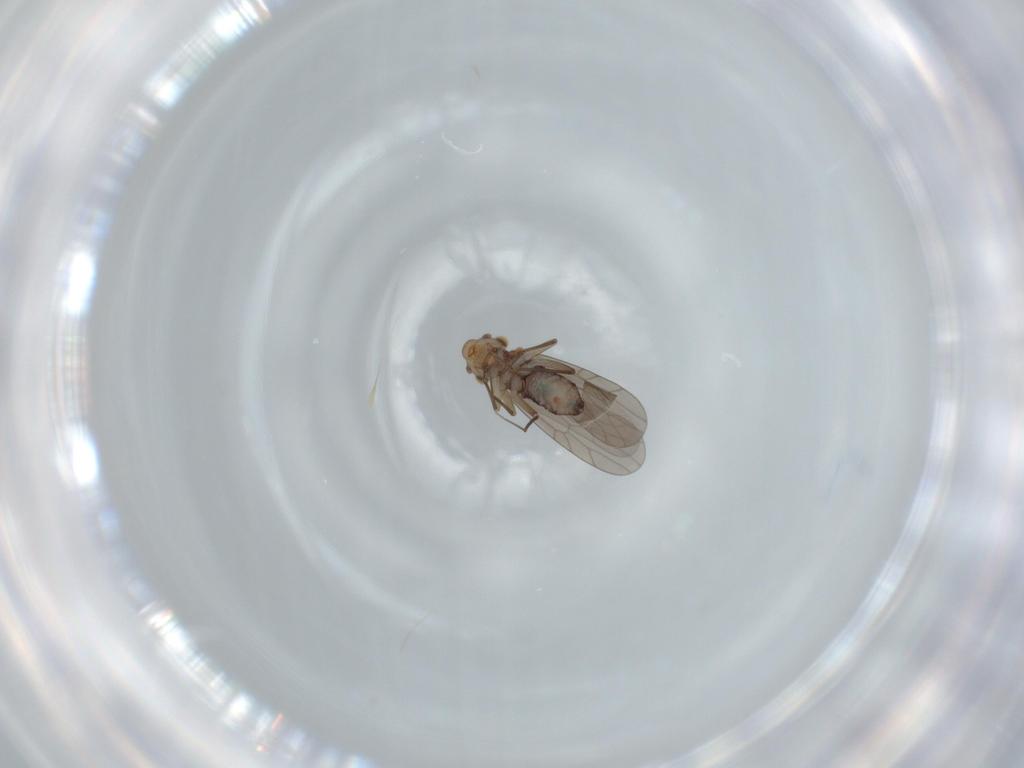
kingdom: Animalia
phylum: Arthropoda
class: Insecta
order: Psocodea
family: Lepidopsocidae
